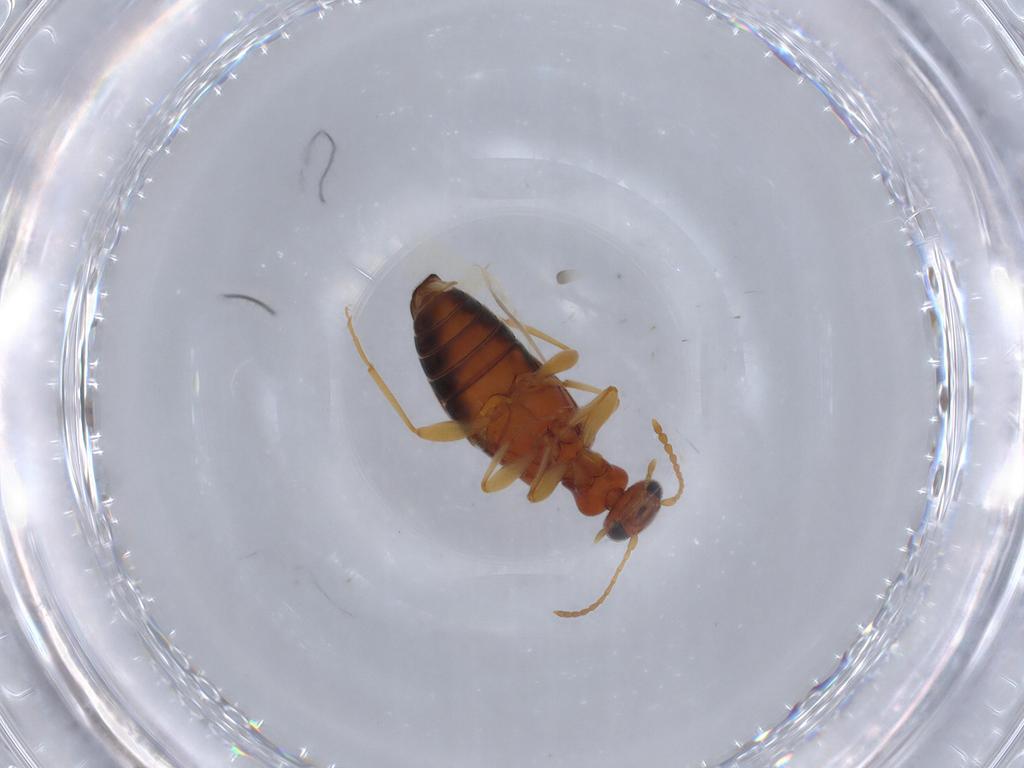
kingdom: Animalia
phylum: Arthropoda
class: Insecta
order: Coleoptera
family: Anthicidae
